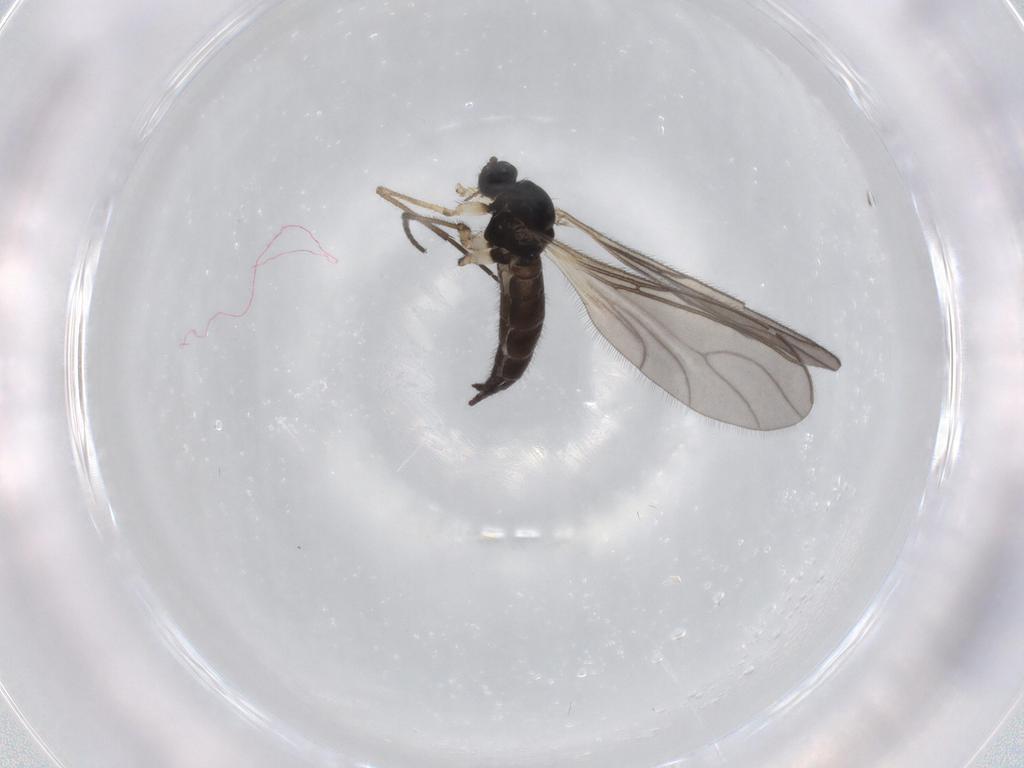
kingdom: Animalia
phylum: Arthropoda
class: Insecta
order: Diptera
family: Sciaridae
